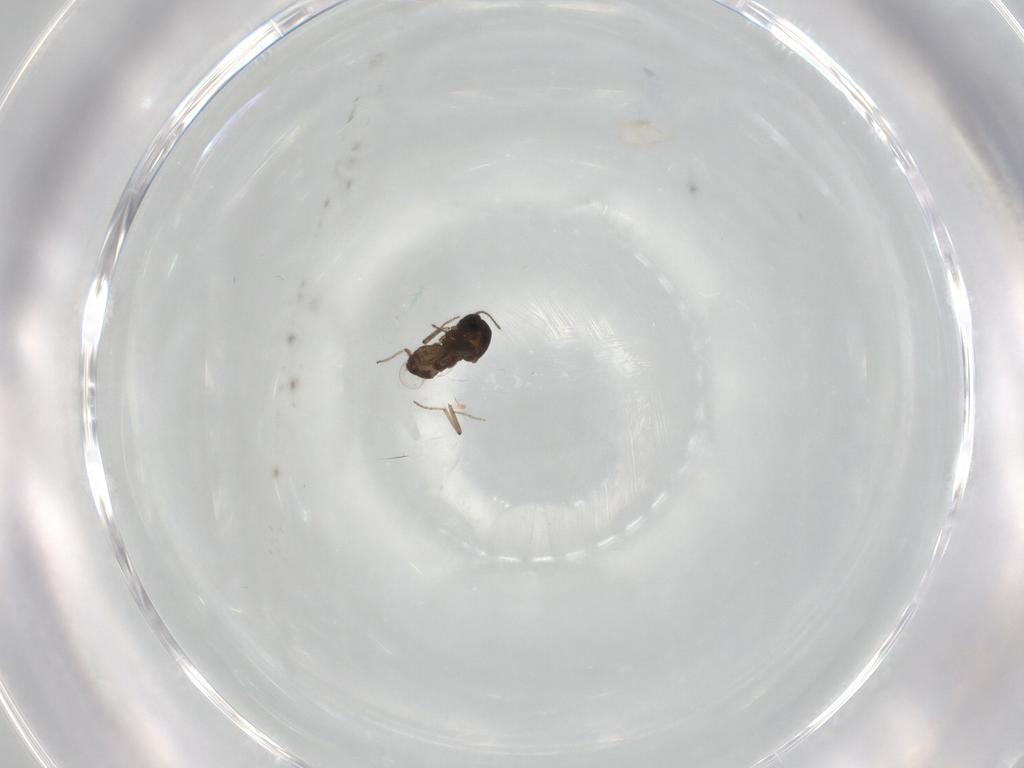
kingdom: Animalia
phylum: Arthropoda
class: Insecta
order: Diptera
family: Ceratopogonidae
